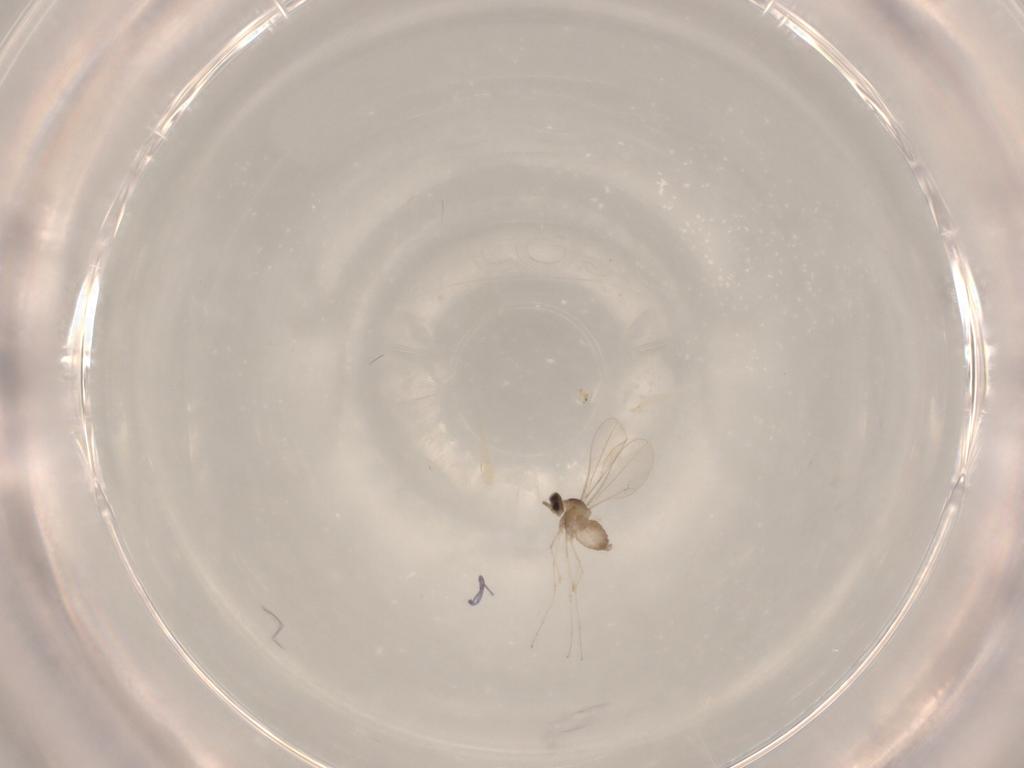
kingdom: Animalia
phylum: Arthropoda
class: Insecta
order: Diptera
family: Cecidomyiidae
